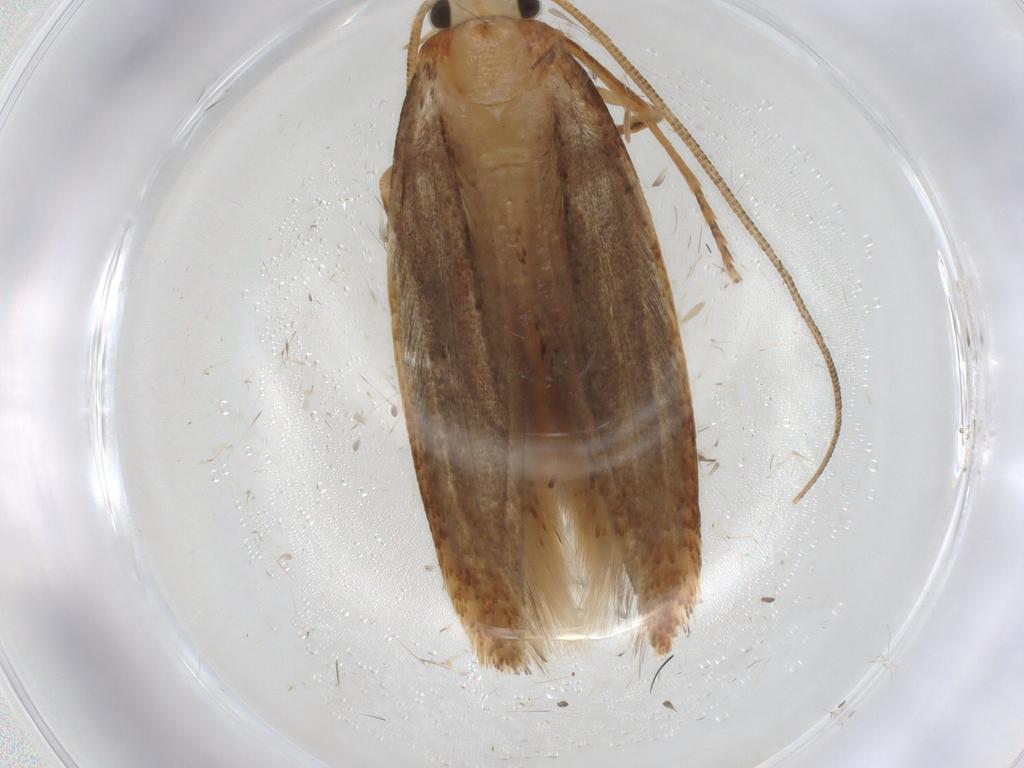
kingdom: Animalia
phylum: Arthropoda
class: Insecta
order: Lepidoptera
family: Tineidae
